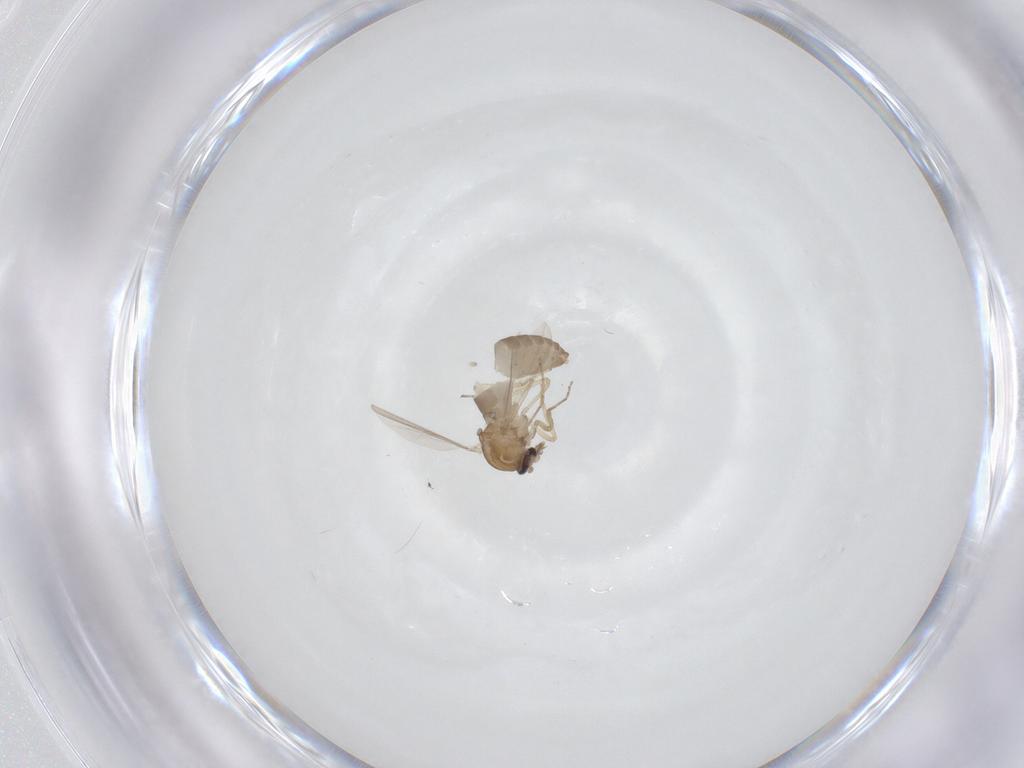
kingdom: Animalia
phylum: Arthropoda
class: Insecta
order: Diptera
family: Ceratopogonidae
